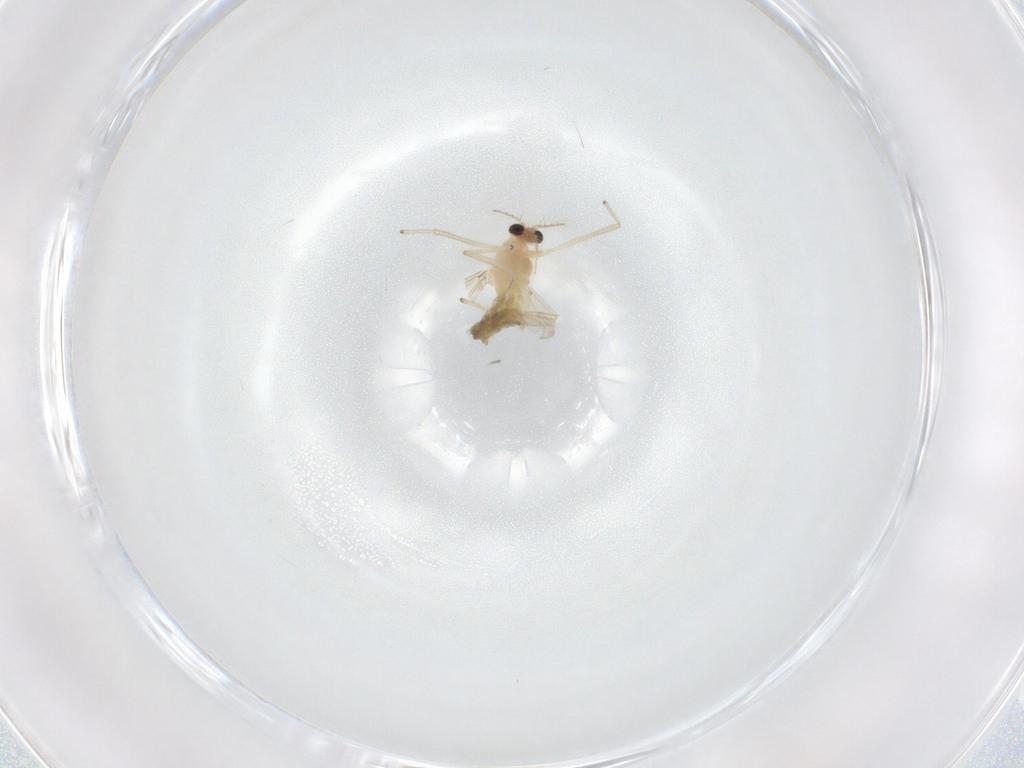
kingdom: Animalia
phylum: Arthropoda
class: Insecta
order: Diptera
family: Chironomidae
